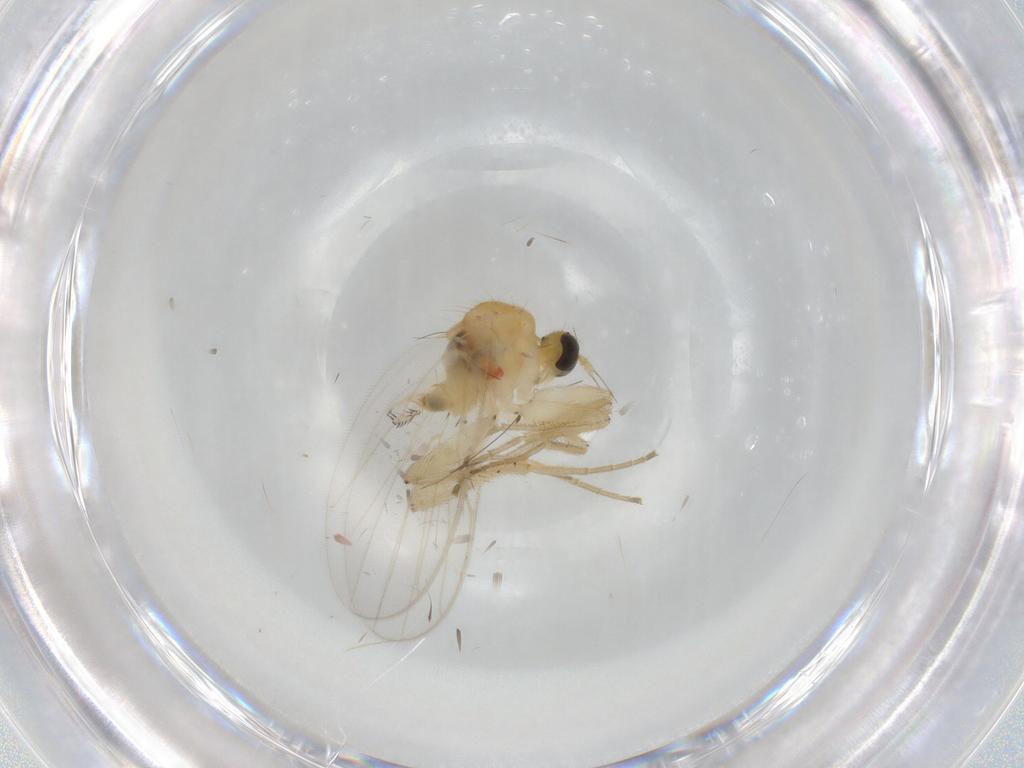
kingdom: Animalia
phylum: Arthropoda
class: Insecta
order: Diptera
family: Hybotidae
